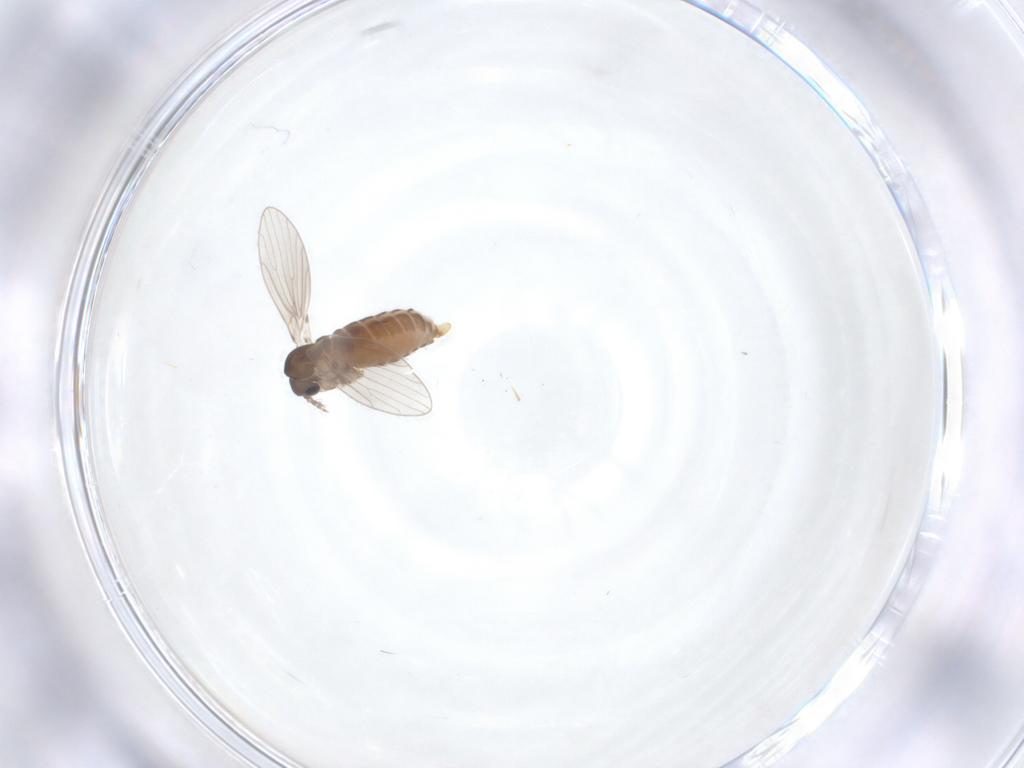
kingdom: Animalia
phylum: Arthropoda
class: Insecta
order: Diptera
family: Psychodidae
